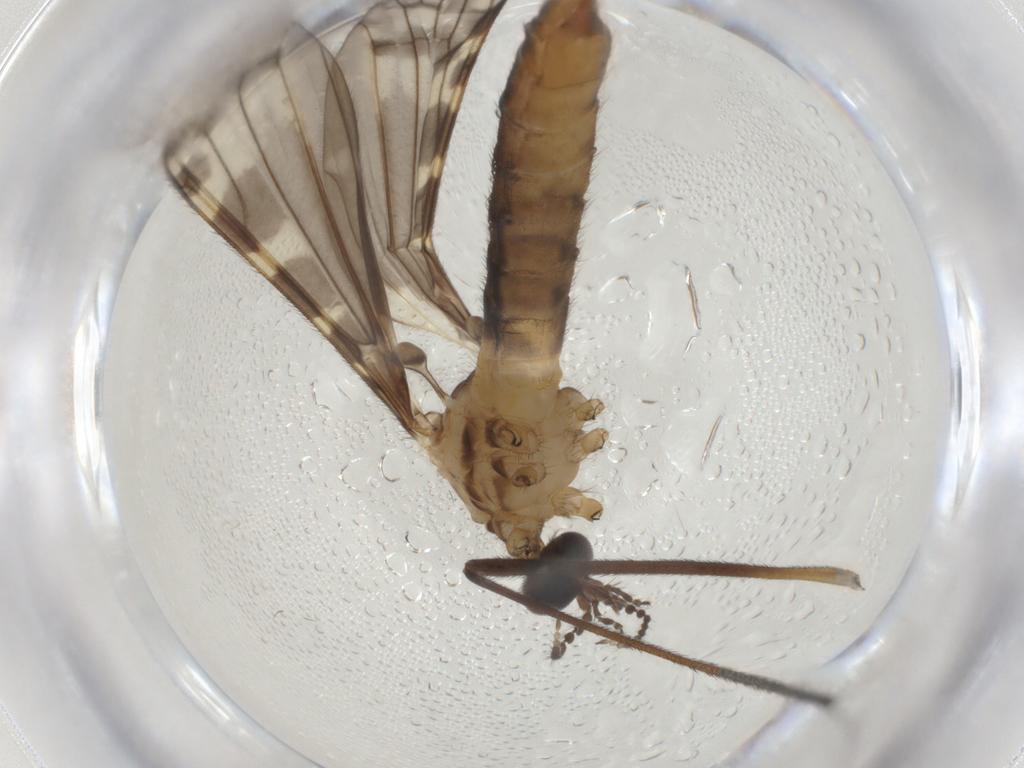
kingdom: Animalia
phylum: Arthropoda
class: Insecta
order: Diptera
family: Limoniidae
